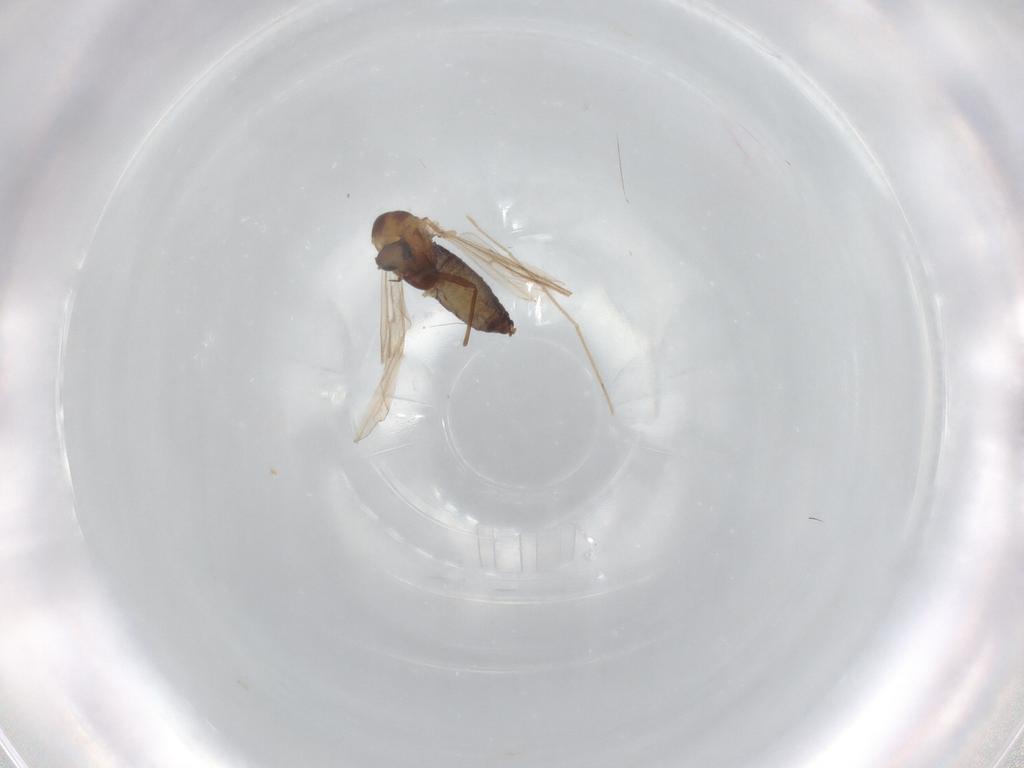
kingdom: Animalia
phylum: Arthropoda
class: Insecta
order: Diptera
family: Chironomidae
